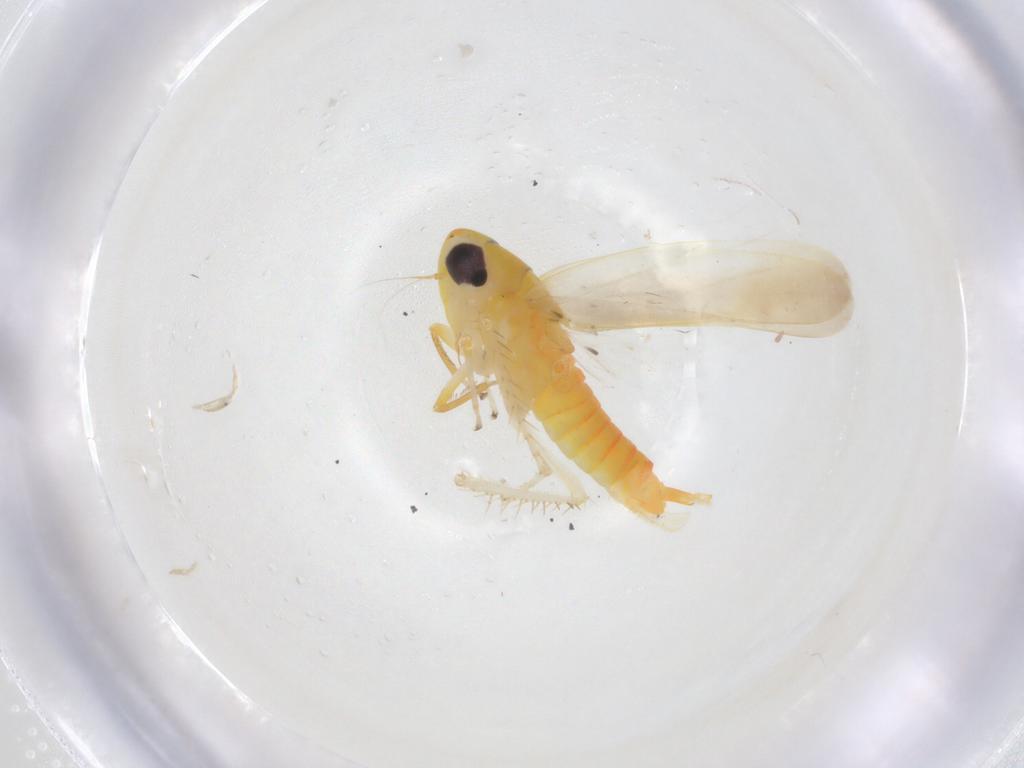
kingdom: Animalia
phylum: Arthropoda
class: Insecta
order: Hemiptera
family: Cicadellidae
